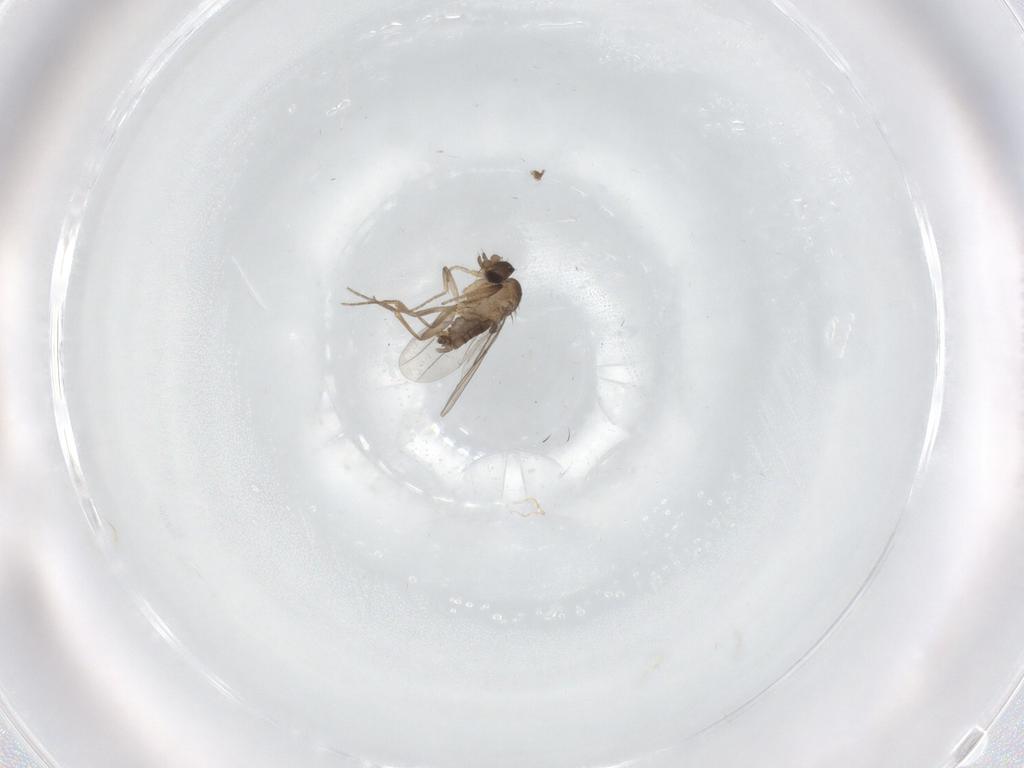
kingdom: Animalia
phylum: Arthropoda
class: Insecta
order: Diptera
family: Phoridae
